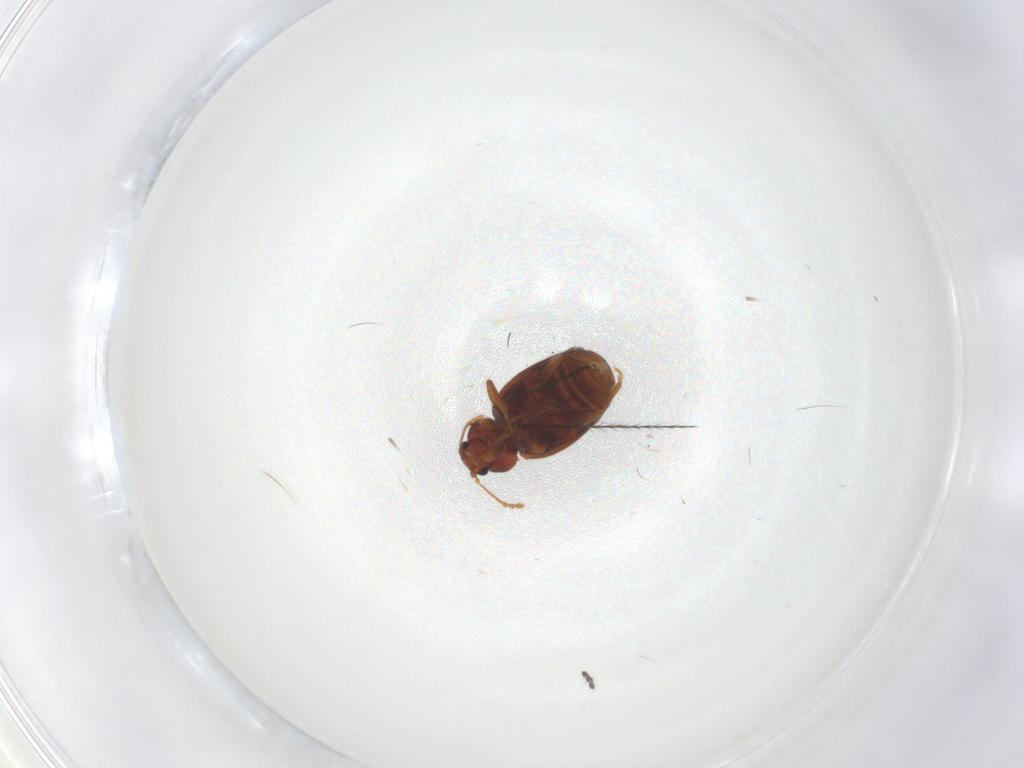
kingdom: Animalia
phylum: Arthropoda
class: Insecta
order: Coleoptera
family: Latridiidae
